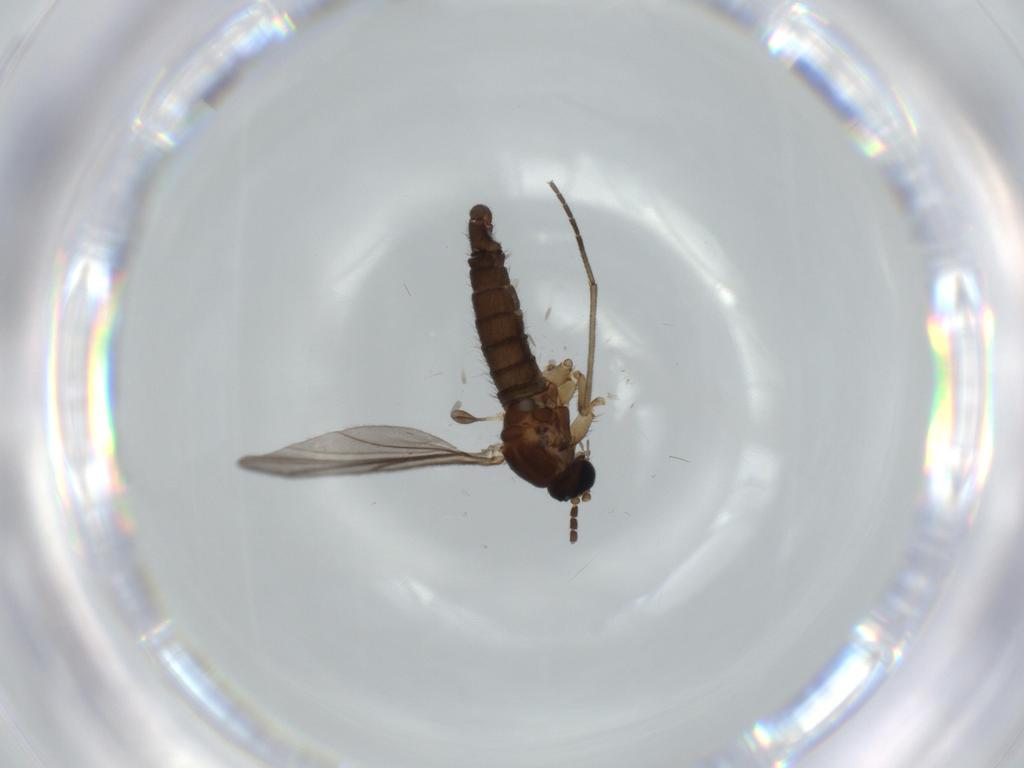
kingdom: Animalia
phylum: Arthropoda
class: Insecta
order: Diptera
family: Sciaridae
